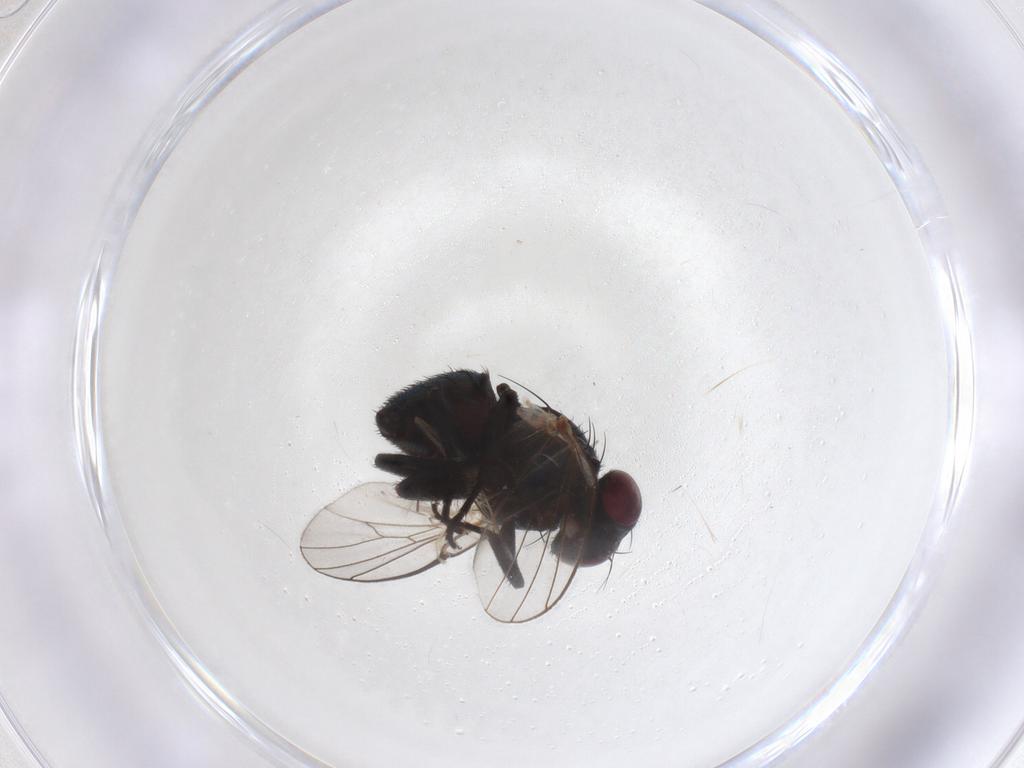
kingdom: Animalia
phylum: Arthropoda
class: Insecta
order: Diptera
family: Agromyzidae
